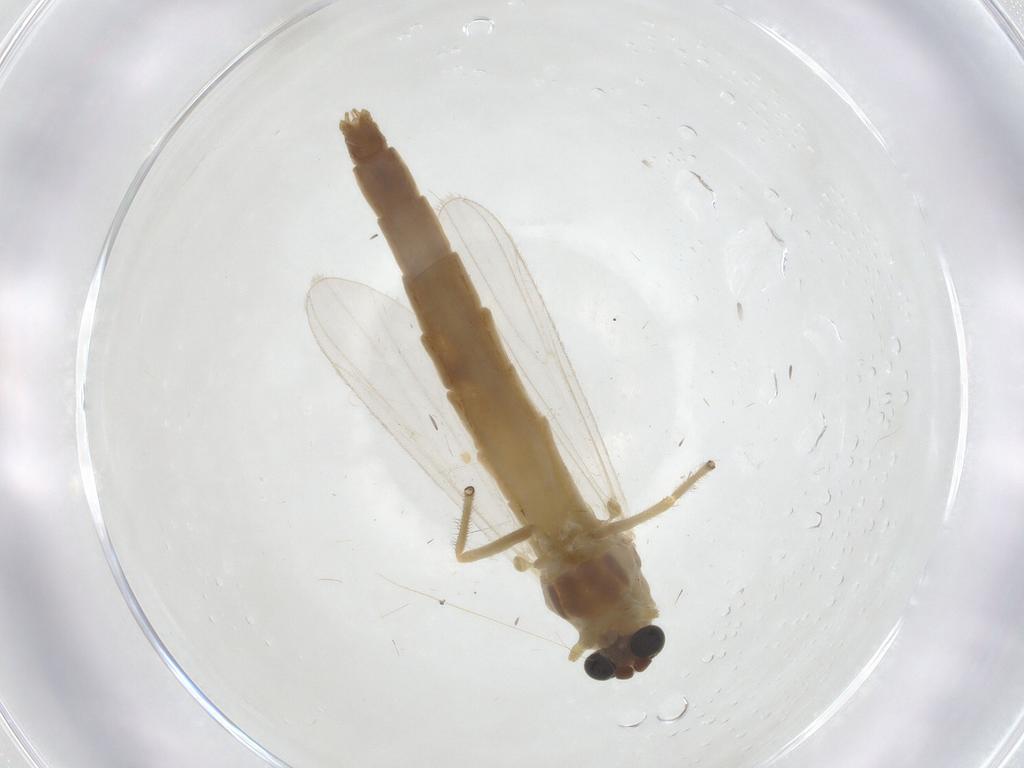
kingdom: Animalia
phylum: Arthropoda
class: Insecta
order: Diptera
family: Chironomidae
